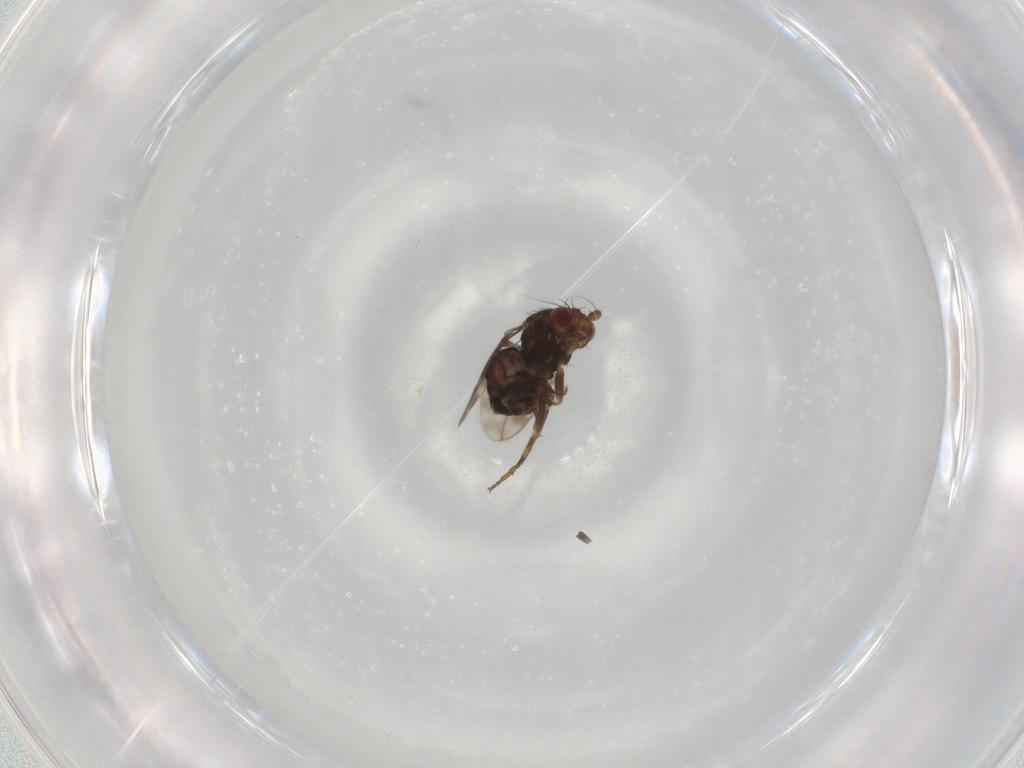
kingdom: Animalia
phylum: Arthropoda
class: Insecta
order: Diptera
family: Sphaeroceridae
